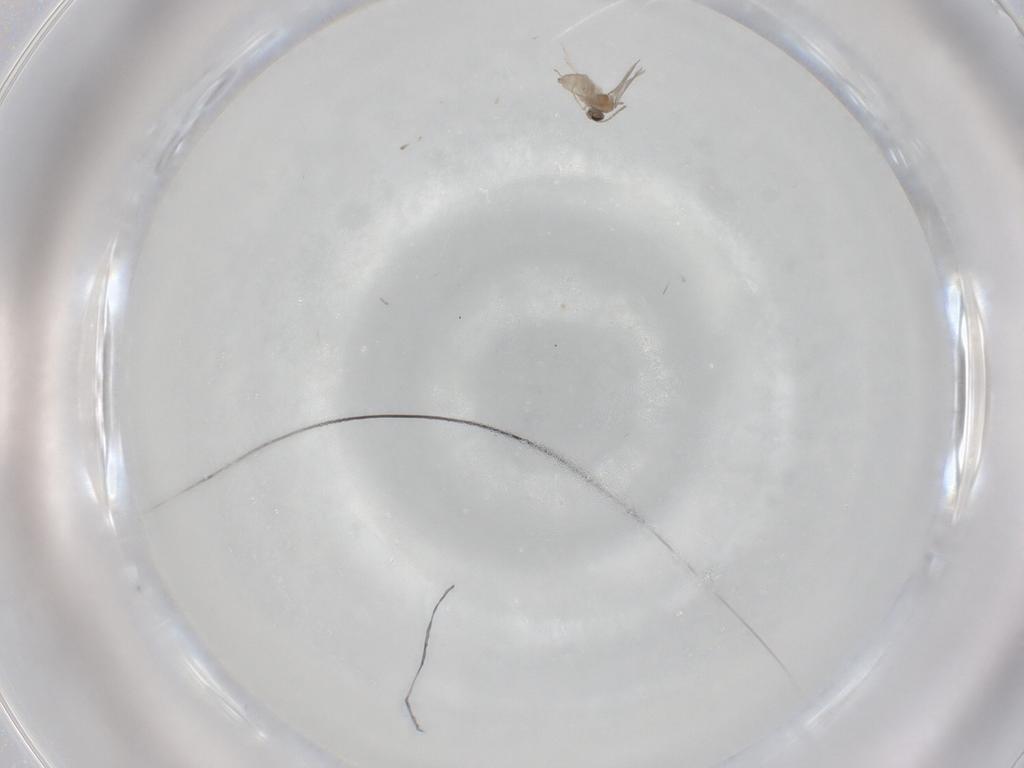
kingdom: Animalia
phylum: Arthropoda
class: Insecta
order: Diptera
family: Cecidomyiidae
